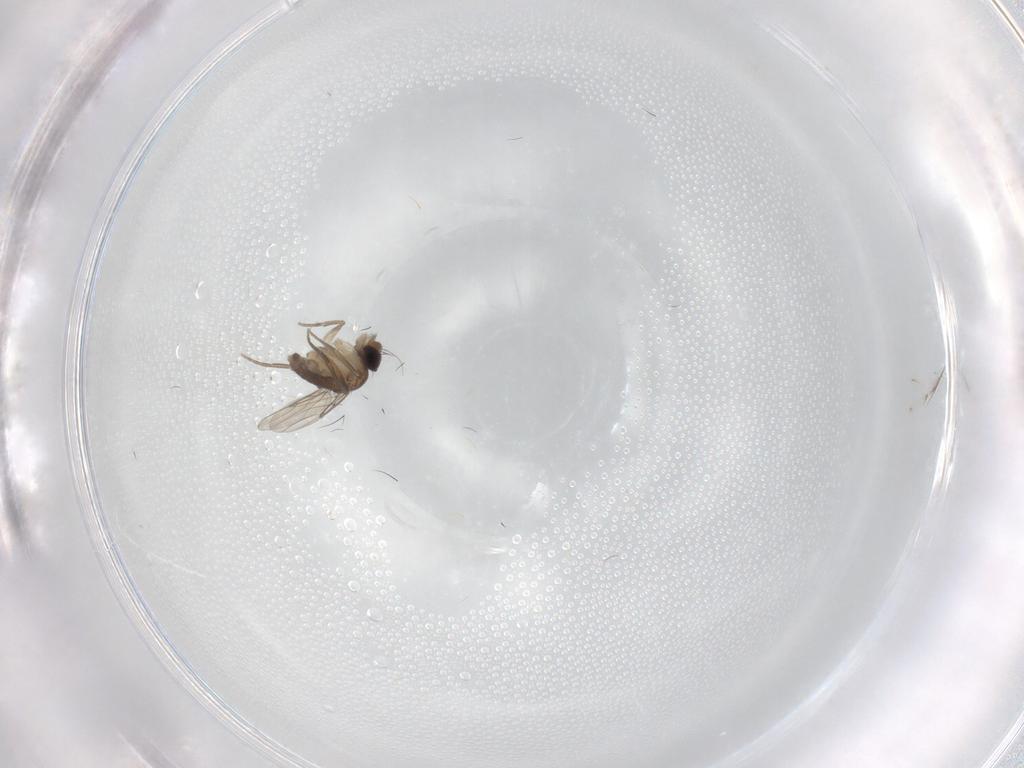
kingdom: Animalia
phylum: Arthropoda
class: Insecta
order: Diptera
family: Phoridae
